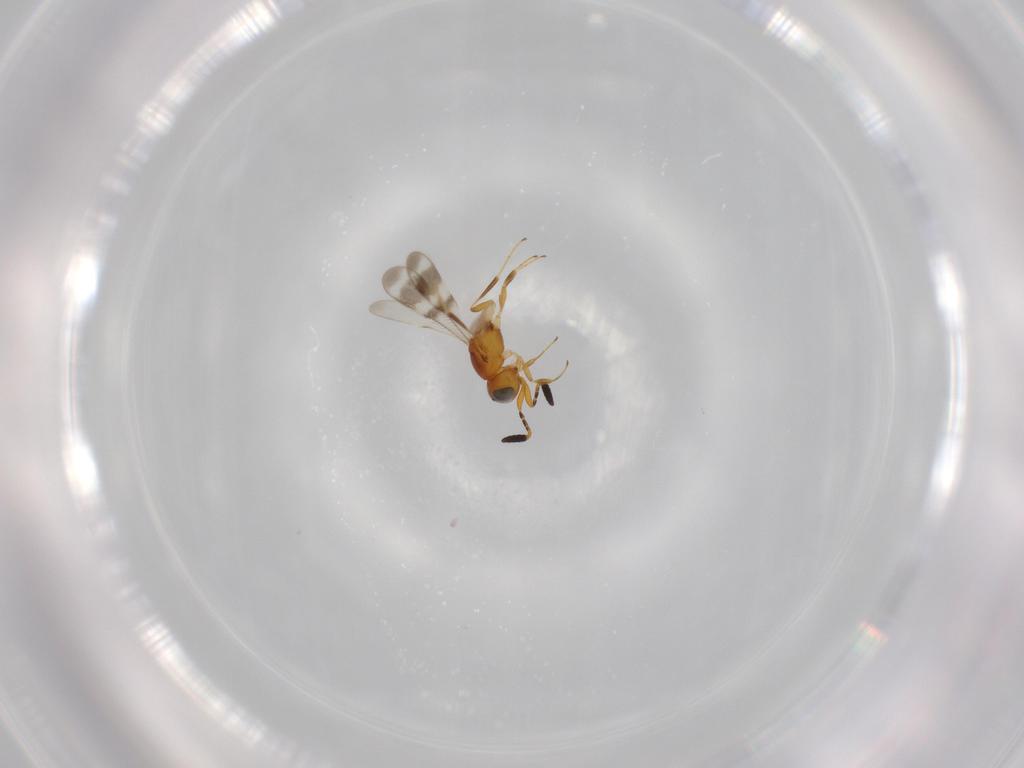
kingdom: Animalia
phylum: Arthropoda
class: Insecta
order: Hymenoptera
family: Scelionidae
